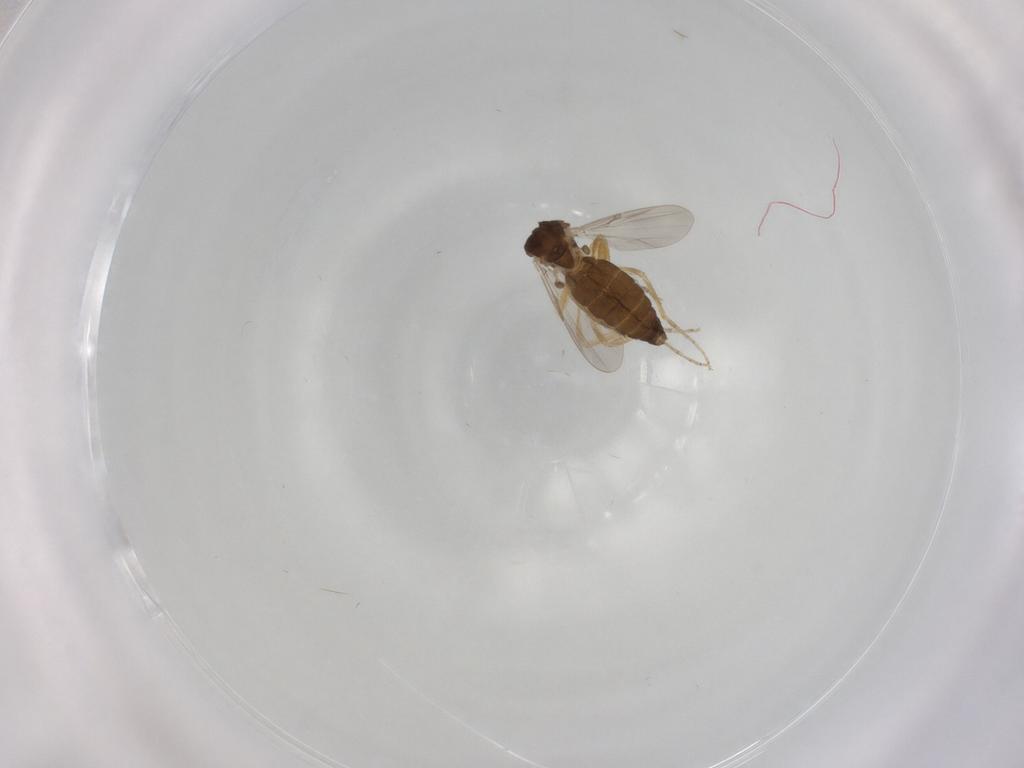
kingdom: Animalia
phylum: Arthropoda
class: Insecta
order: Diptera
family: Ceratopogonidae
